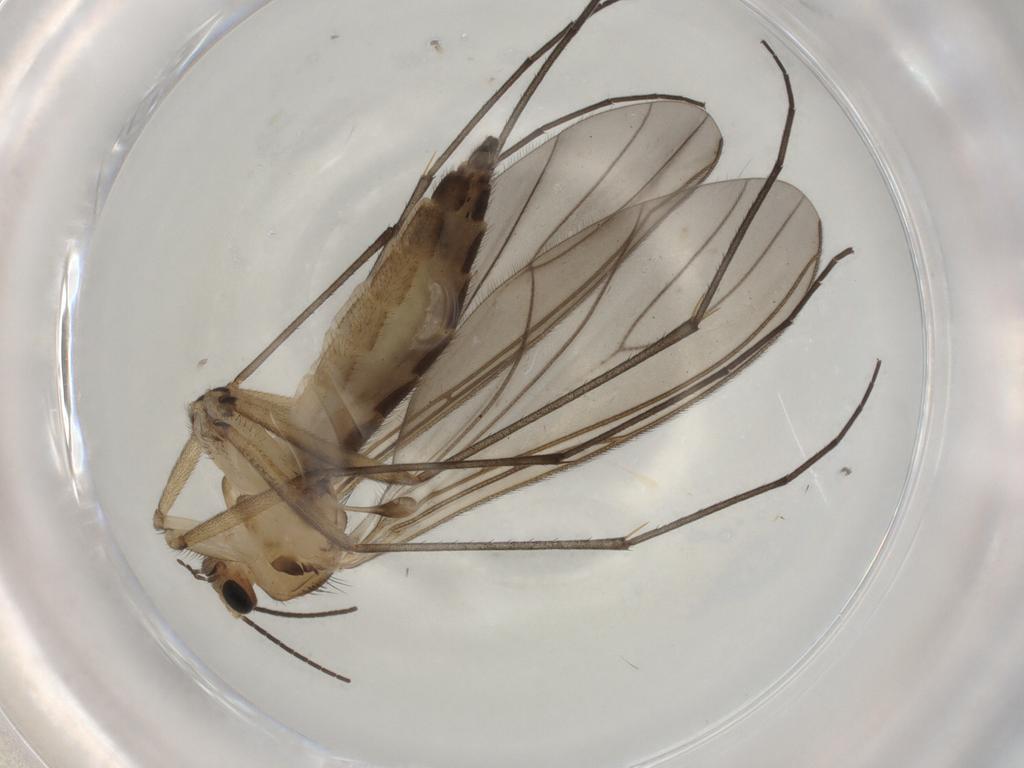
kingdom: Animalia
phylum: Arthropoda
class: Insecta
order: Diptera
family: Sciaridae
